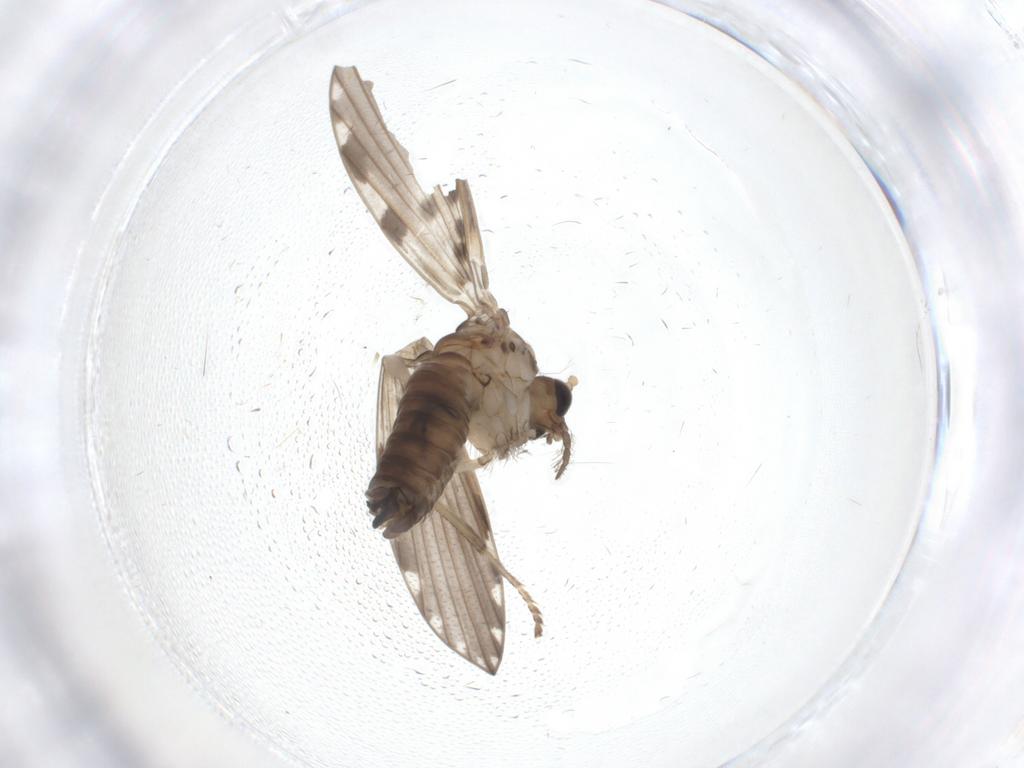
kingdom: Animalia
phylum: Arthropoda
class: Insecta
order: Diptera
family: Psychodidae
